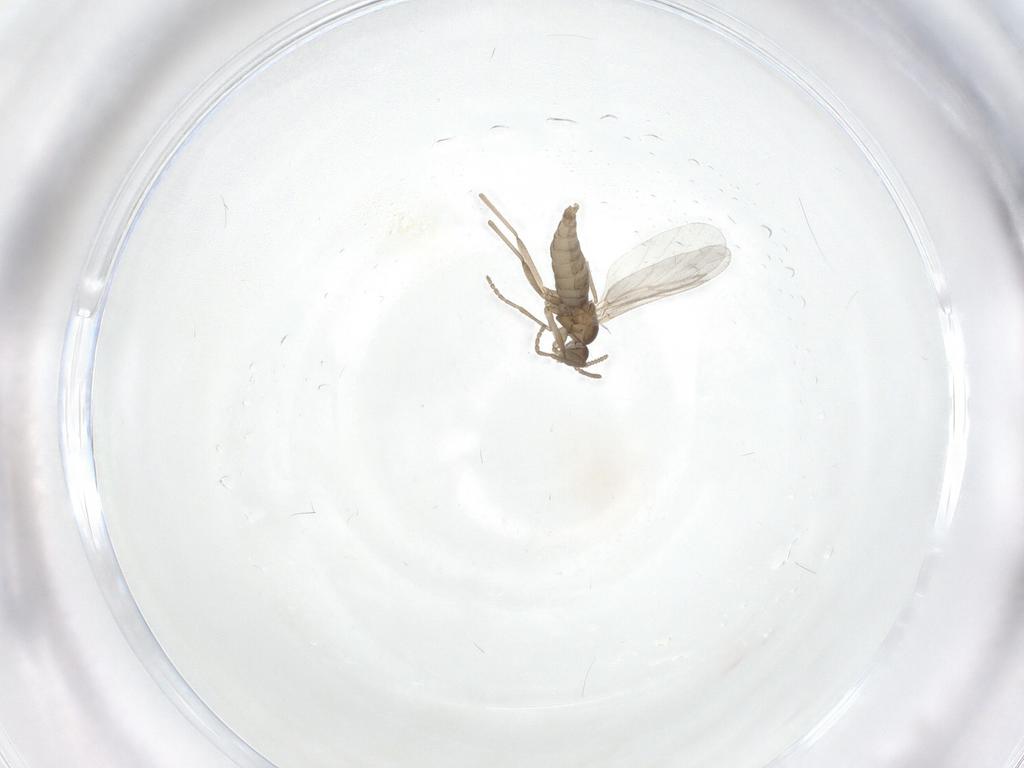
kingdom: Animalia
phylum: Arthropoda
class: Insecta
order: Diptera
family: Cecidomyiidae
